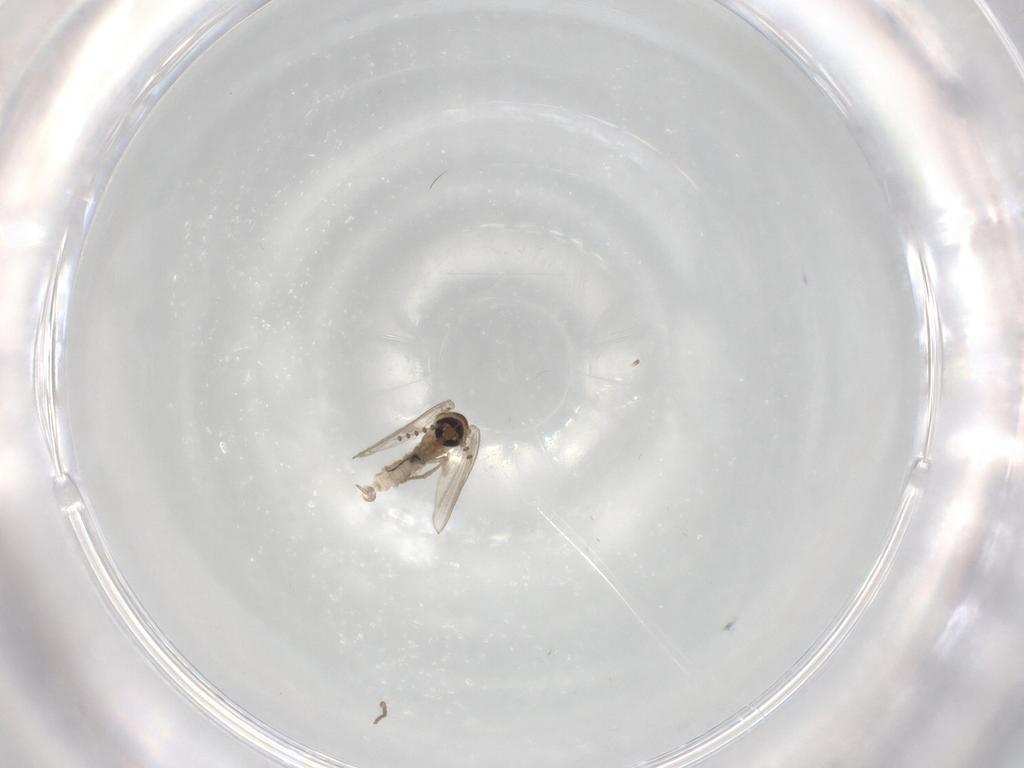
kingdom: Animalia
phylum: Arthropoda
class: Insecta
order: Diptera
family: Psychodidae
